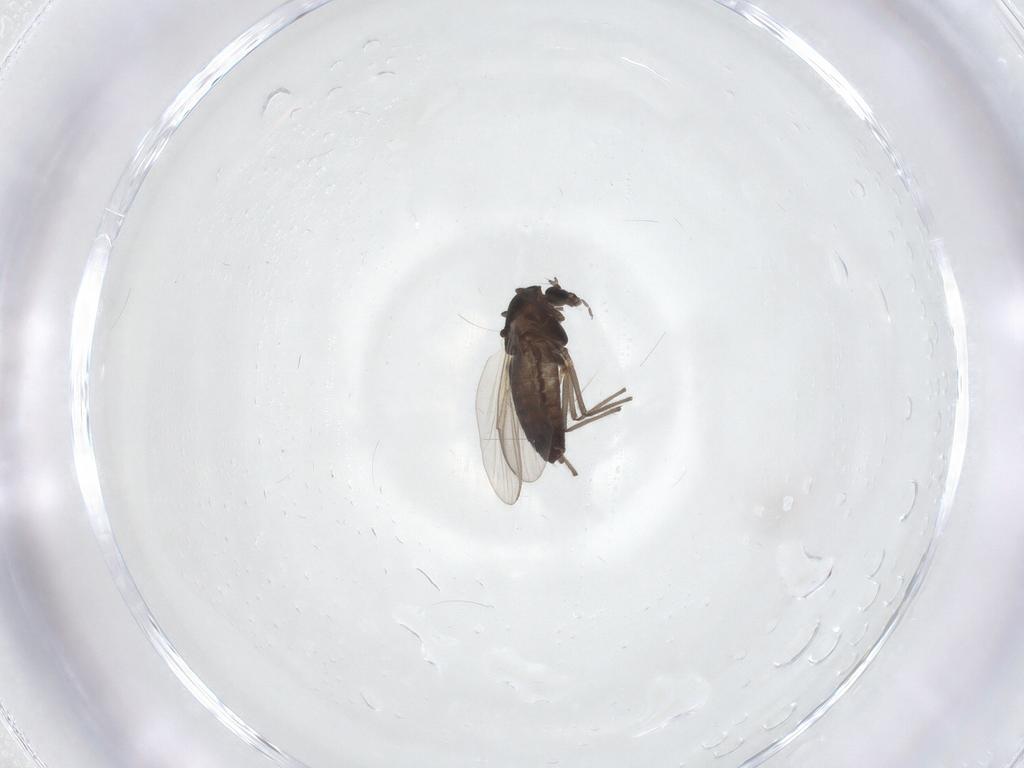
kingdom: Animalia
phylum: Arthropoda
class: Insecta
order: Diptera
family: Chironomidae
